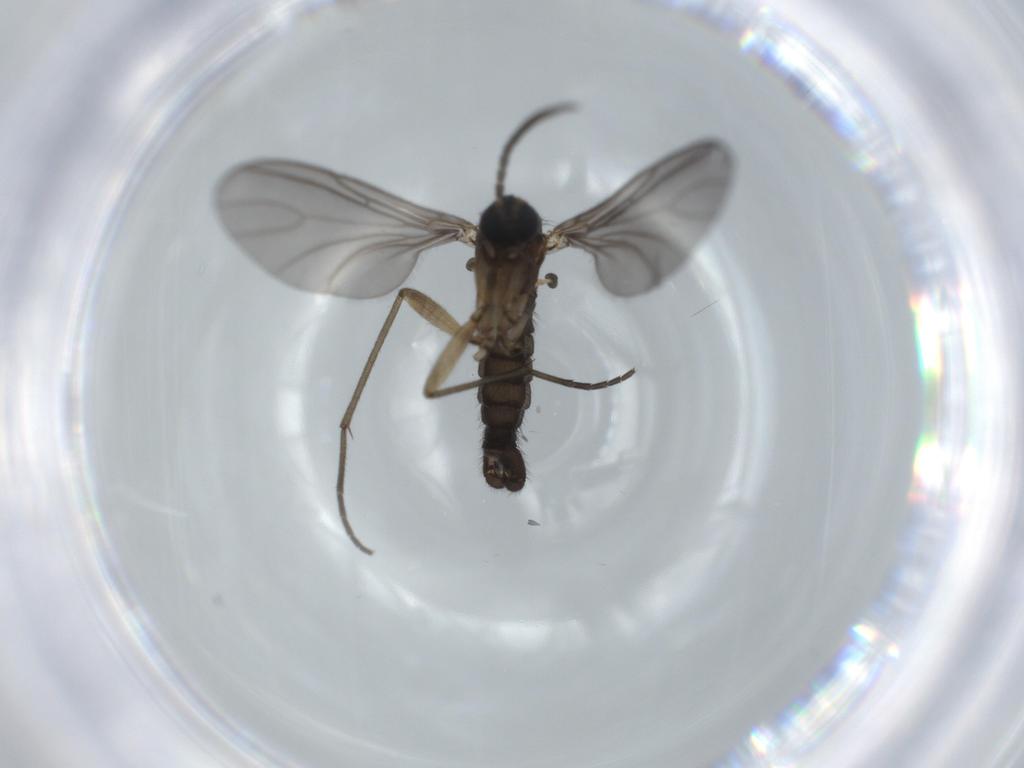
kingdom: Animalia
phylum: Arthropoda
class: Insecta
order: Diptera
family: Sciaridae
